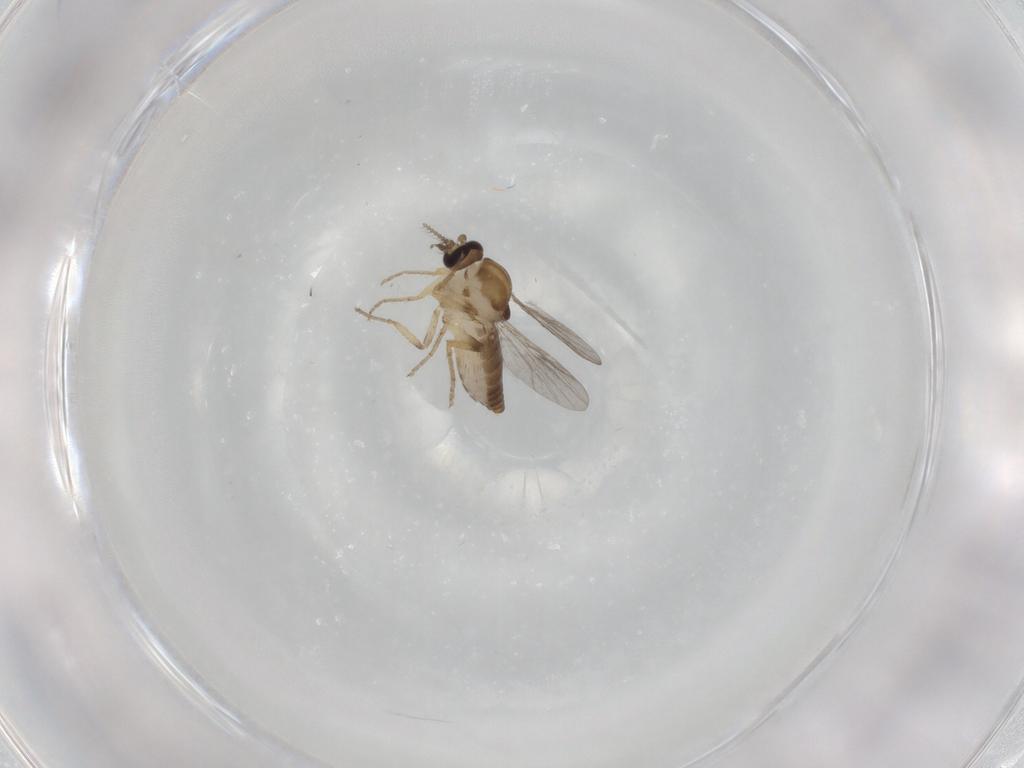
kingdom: Animalia
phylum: Arthropoda
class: Insecta
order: Diptera
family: Ceratopogonidae
